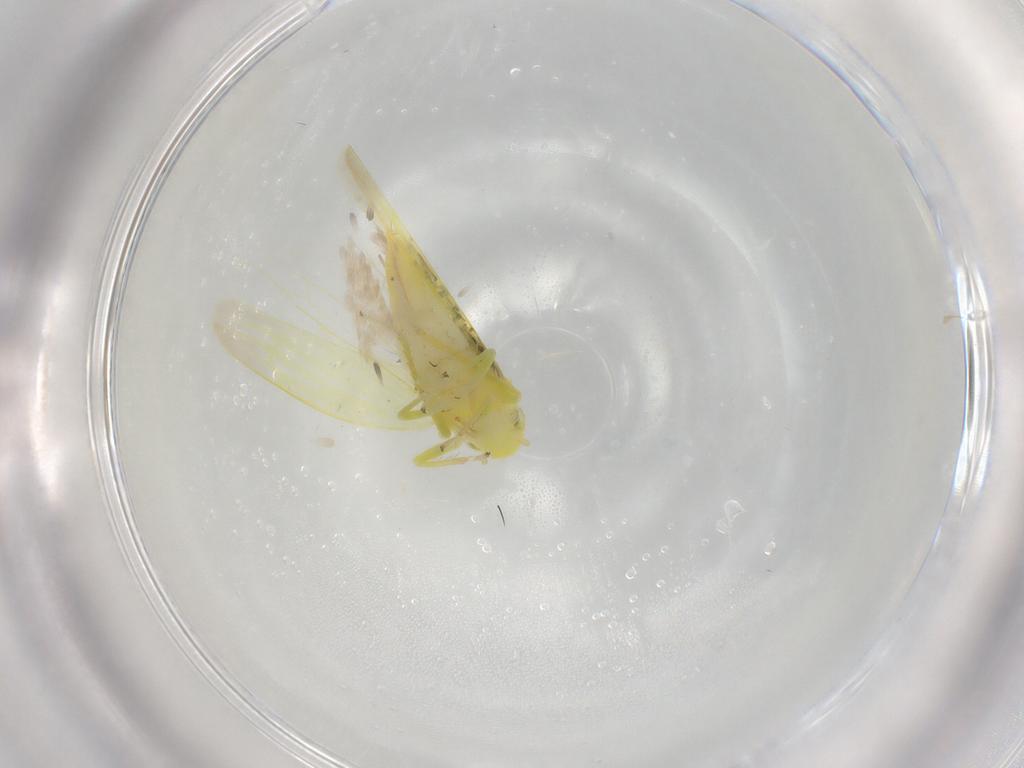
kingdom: Animalia
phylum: Arthropoda
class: Insecta
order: Hemiptera
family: Cicadellidae
